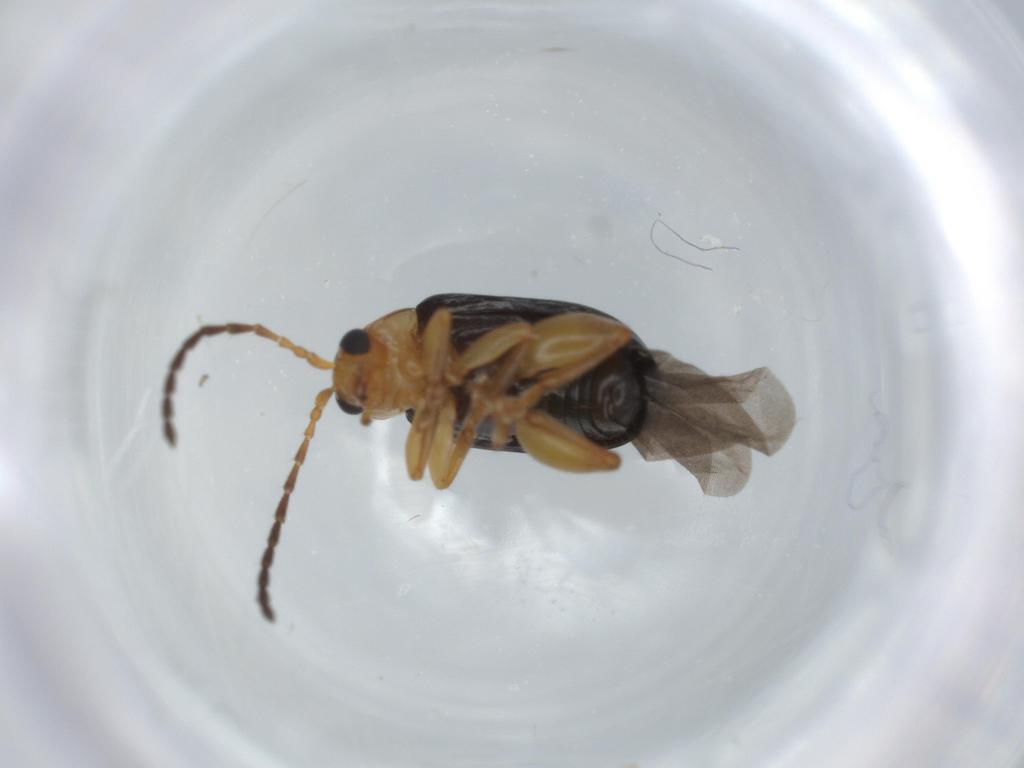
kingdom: Animalia
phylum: Arthropoda
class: Insecta
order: Coleoptera
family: Chrysomelidae
